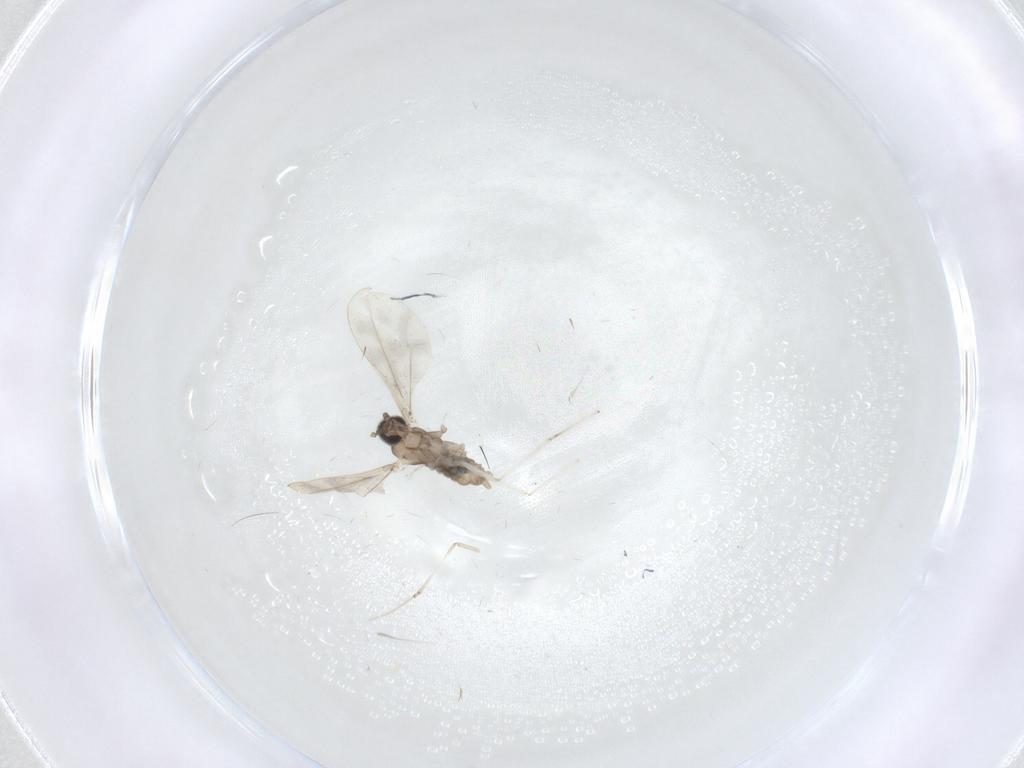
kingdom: Animalia
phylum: Arthropoda
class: Insecta
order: Diptera
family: Cecidomyiidae
